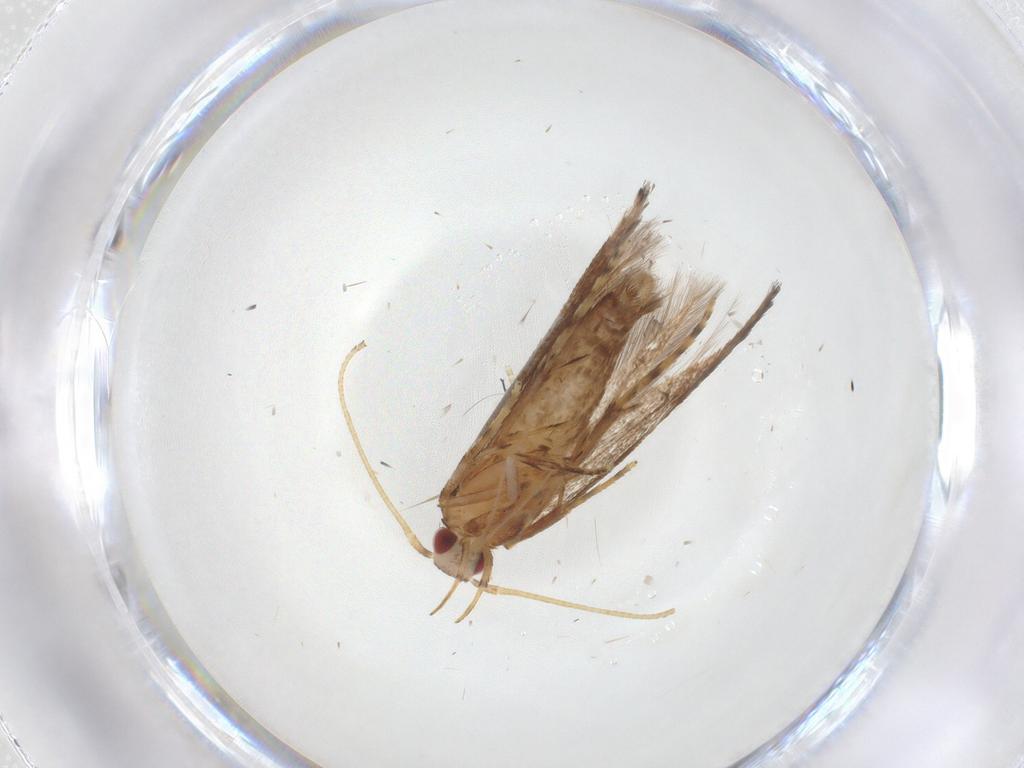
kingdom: Animalia
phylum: Arthropoda
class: Insecta
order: Lepidoptera
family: Cosmopterigidae
